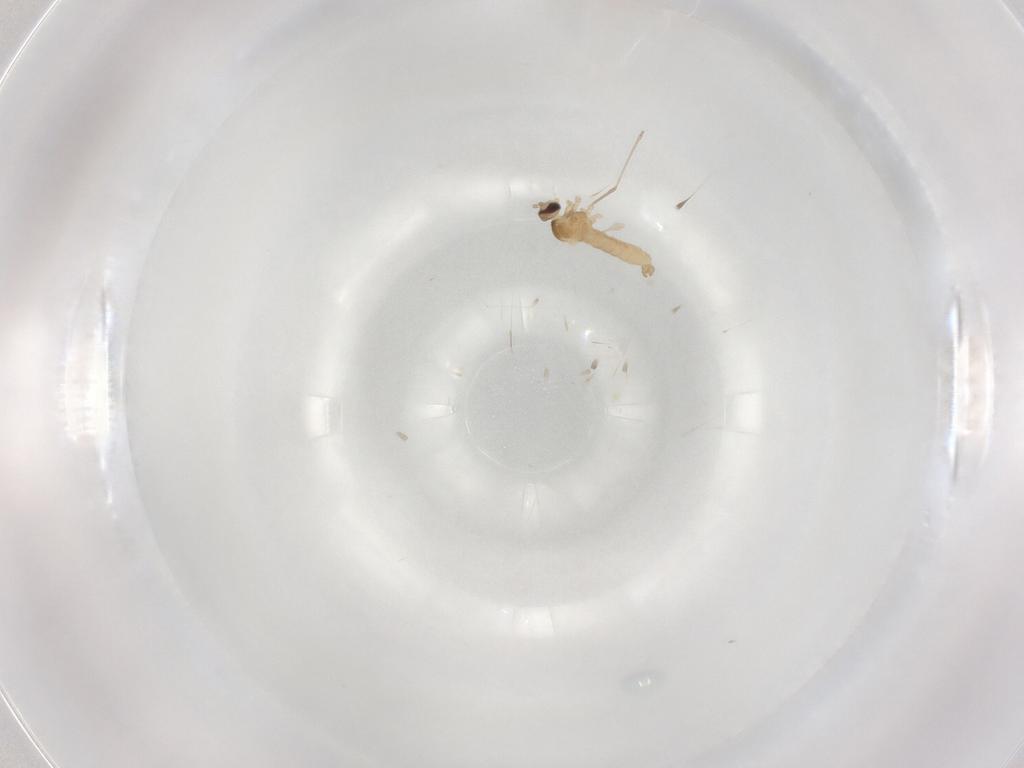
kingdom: Animalia
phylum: Arthropoda
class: Insecta
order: Diptera
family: Cecidomyiidae
